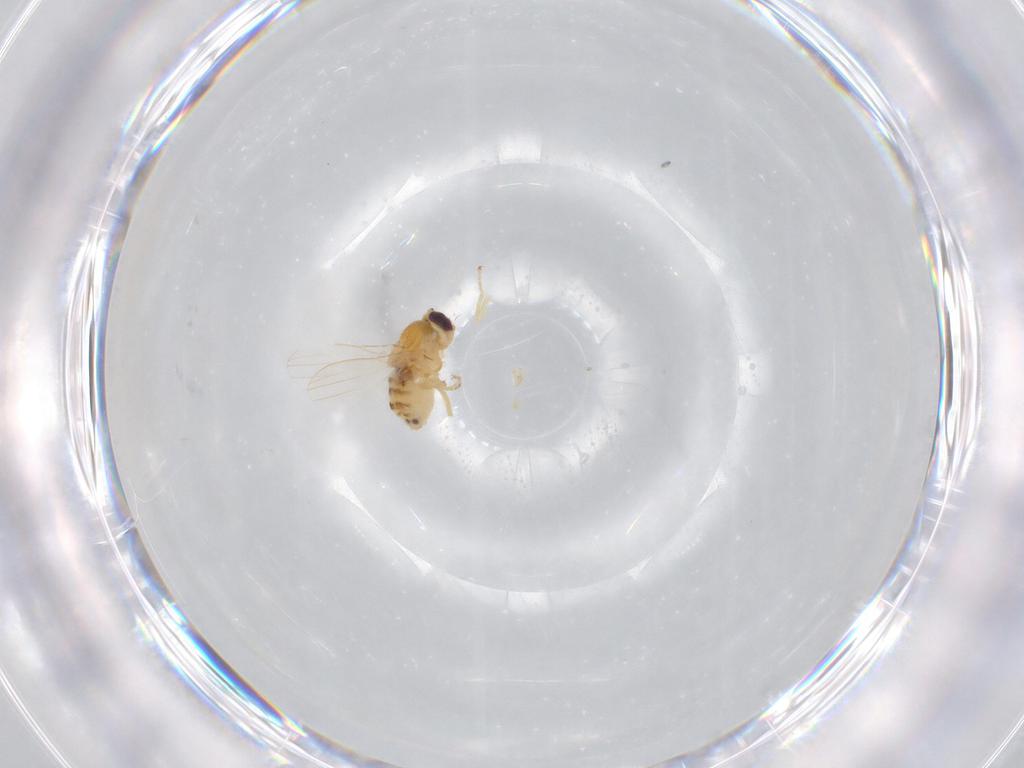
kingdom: Animalia
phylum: Arthropoda
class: Insecta
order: Diptera
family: Chyromyidae
